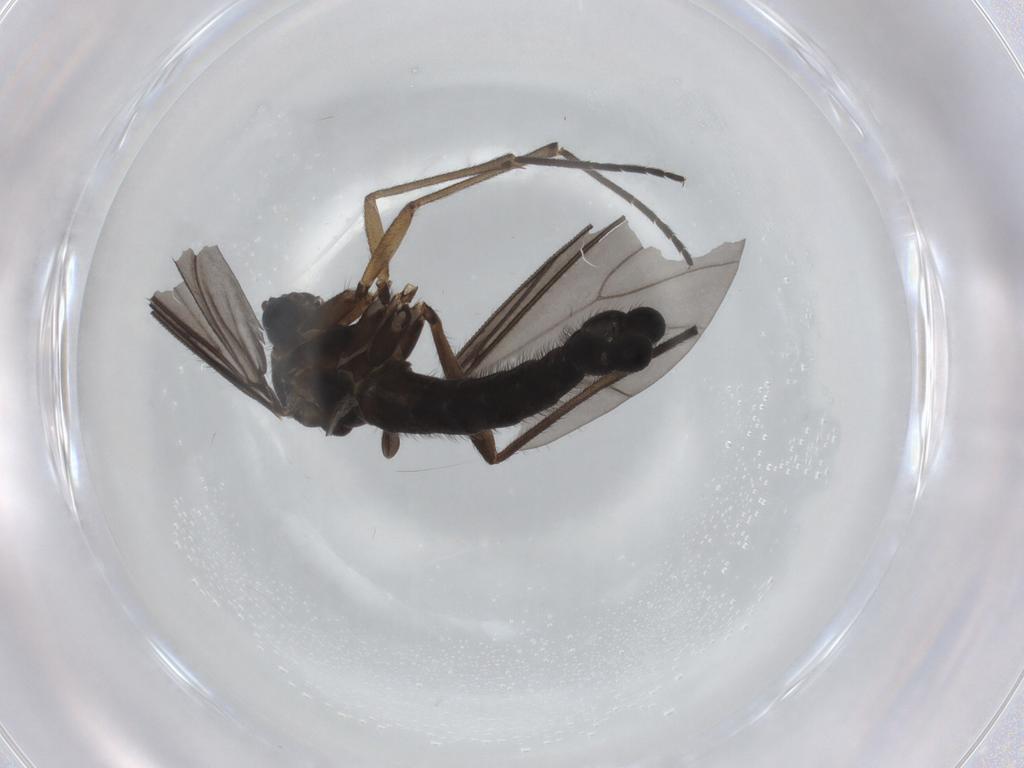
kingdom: Animalia
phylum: Arthropoda
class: Insecta
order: Diptera
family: Sciaridae
